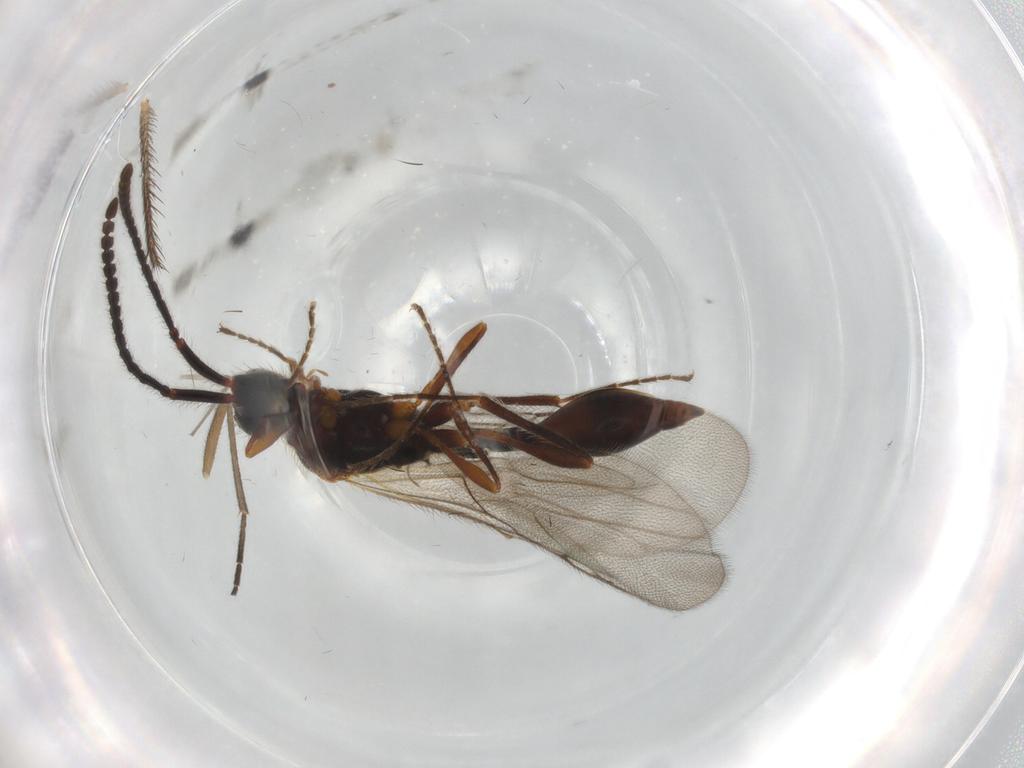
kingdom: Animalia
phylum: Arthropoda
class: Insecta
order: Hymenoptera
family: Diapriidae
